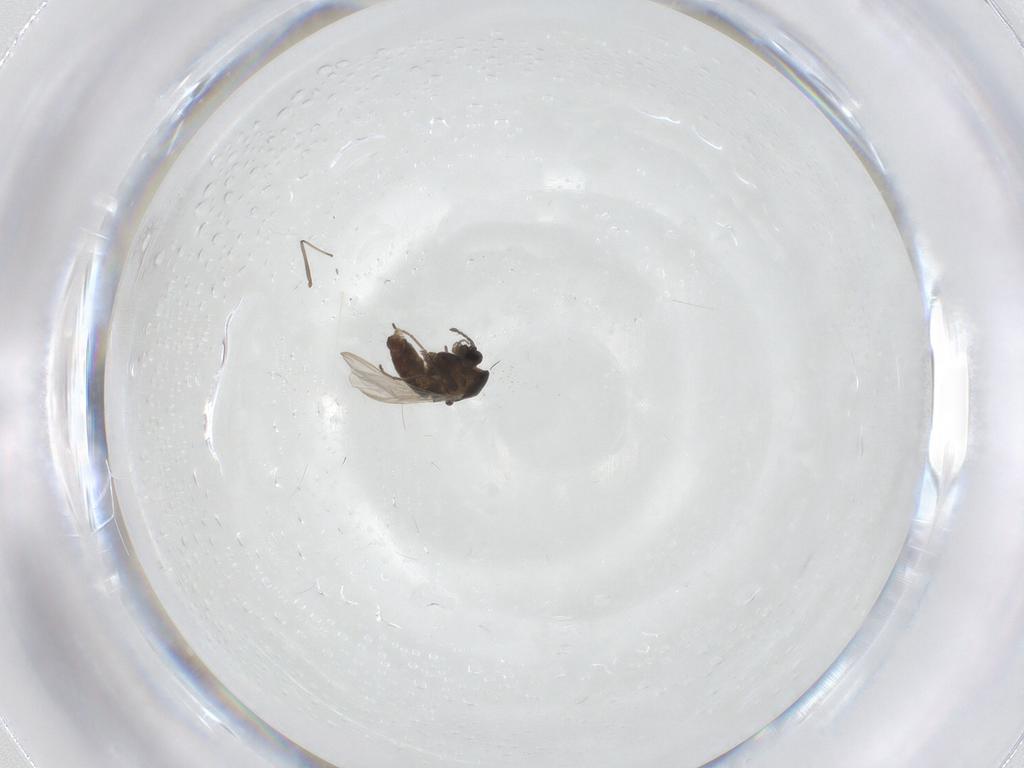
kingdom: Animalia
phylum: Arthropoda
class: Insecta
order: Diptera
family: Chironomidae
